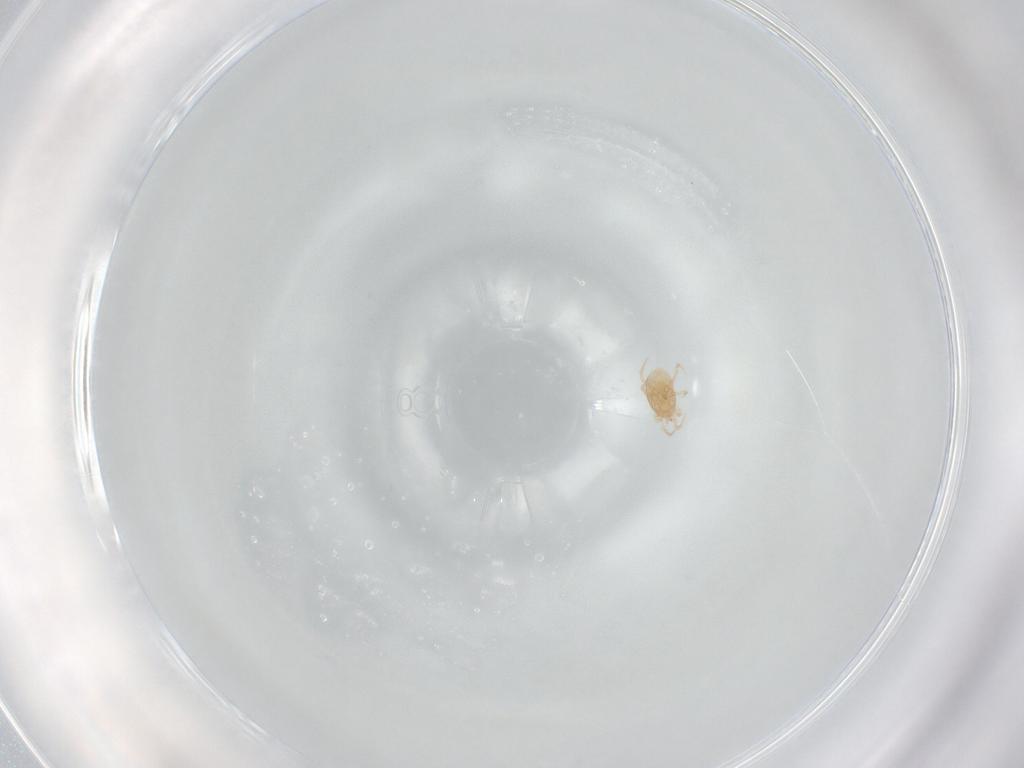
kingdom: Animalia
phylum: Arthropoda
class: Arachnida
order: Mesostigmata
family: Melicharidae
